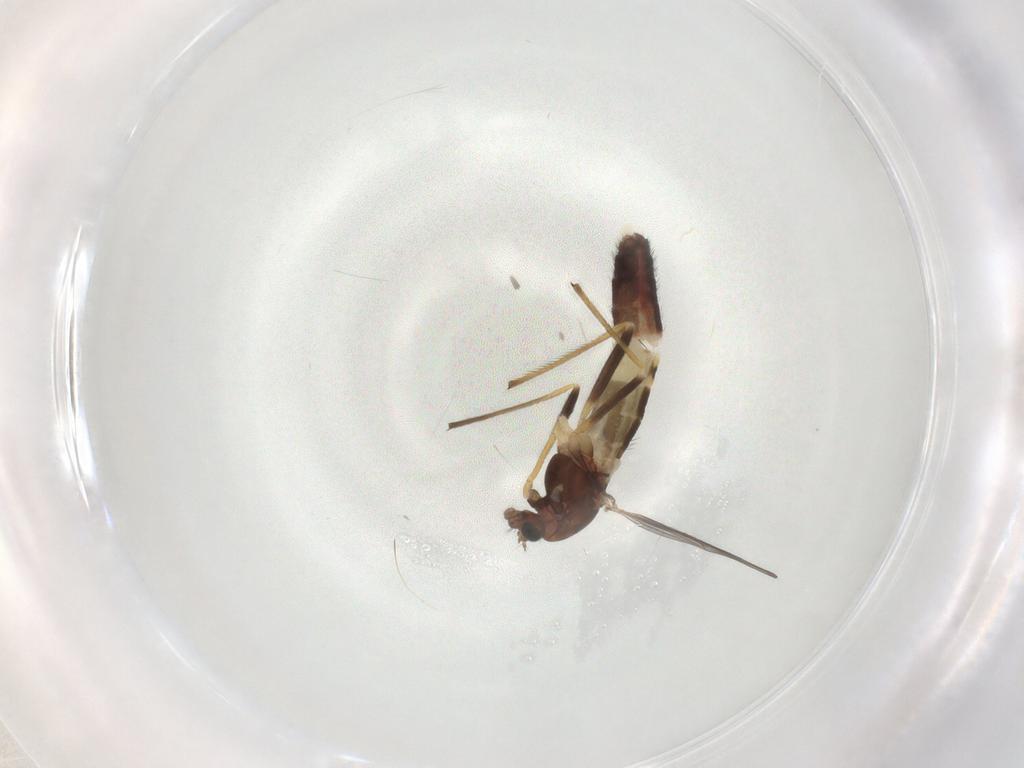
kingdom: Animalia
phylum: Arthropoda
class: Insecta
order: Diptera
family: Chironomidae
